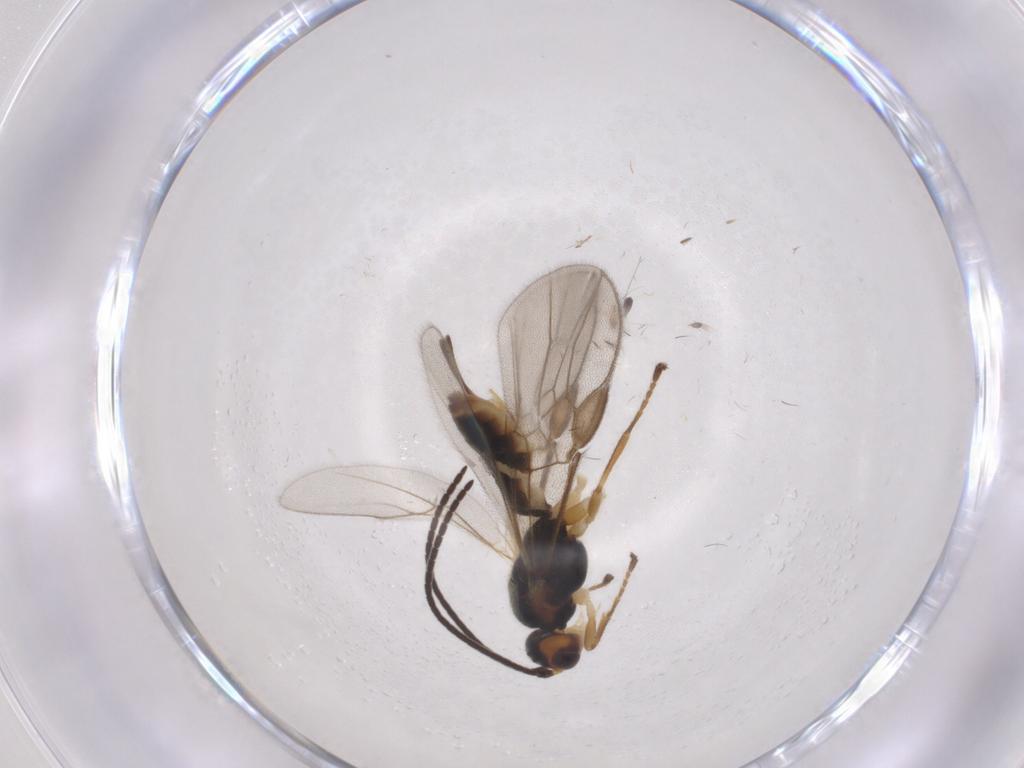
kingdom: Animalia
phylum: Arthropoda
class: Insecta
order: Hymenoptera
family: Braconidae
